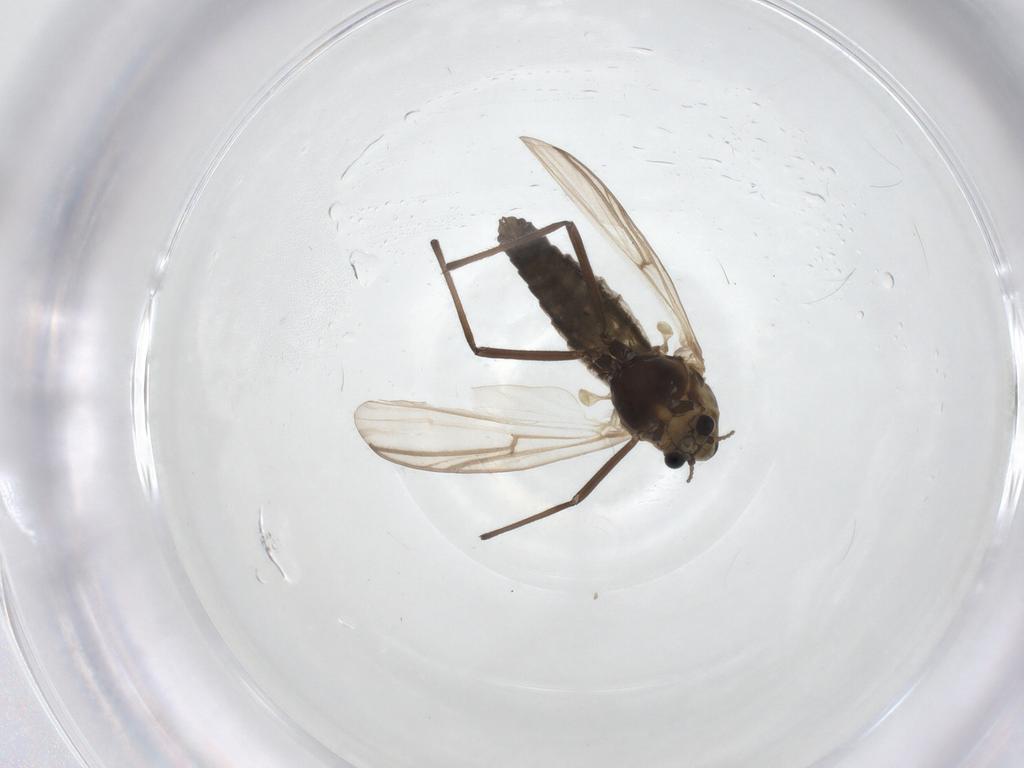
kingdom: Animalia
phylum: Arthropoda
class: Insecta
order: Diptera
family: Chironomidae
